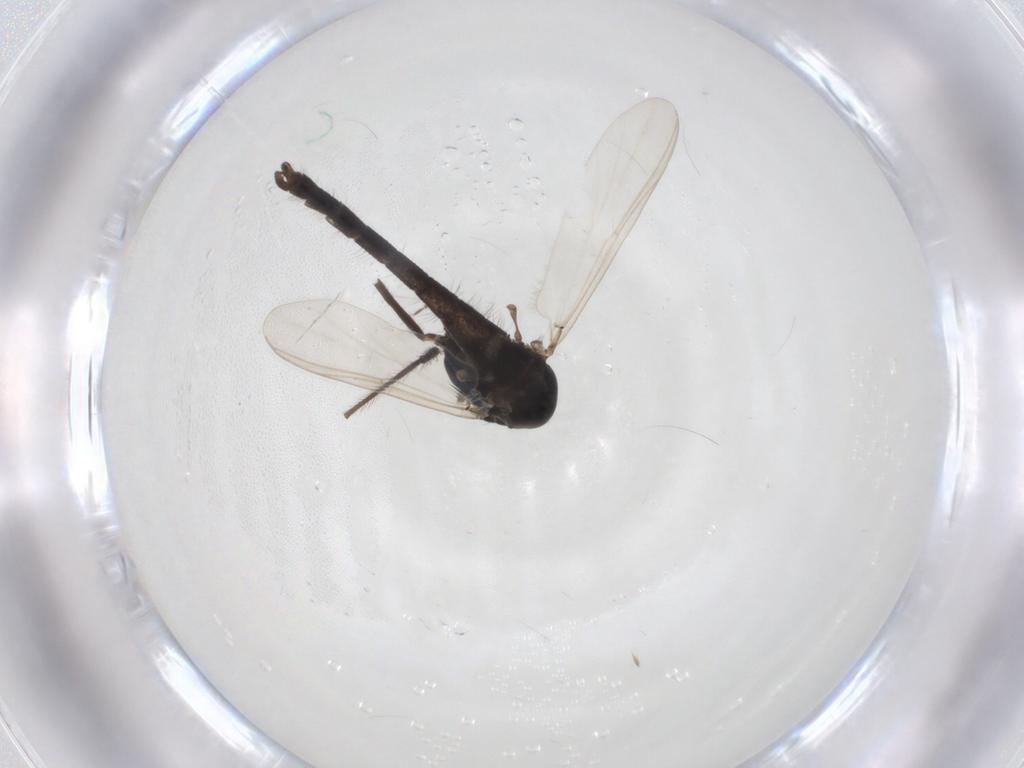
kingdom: Animalia
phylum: Arthropoda
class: Insecta
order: Diptera
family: Chironomidae
